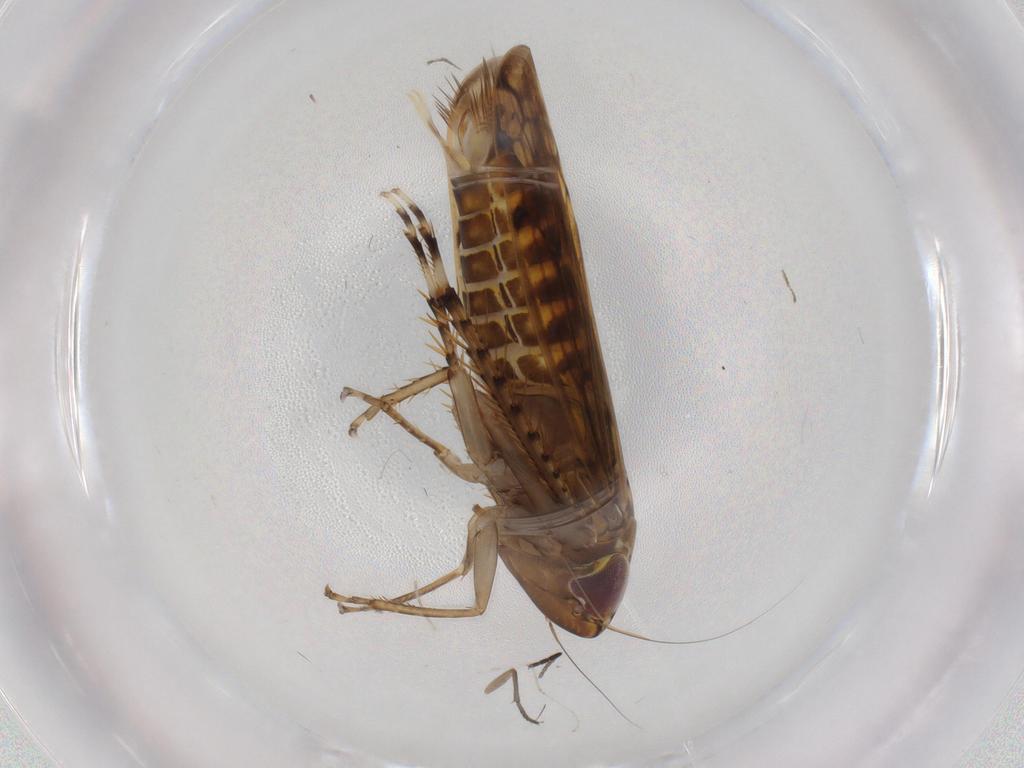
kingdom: Animalia
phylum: Arthropoda
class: Insecta
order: Hemiptera
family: Cicadellidae
